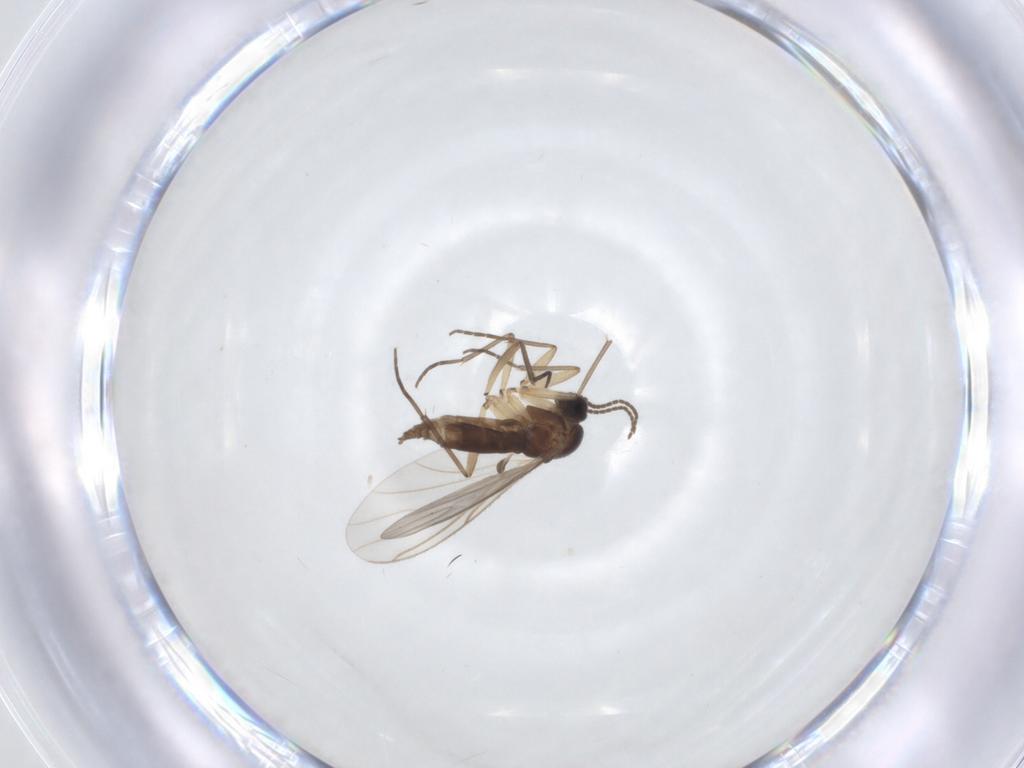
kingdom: Animalia
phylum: Arthropoda
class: Insecta
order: Diptera
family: Sciaridae
